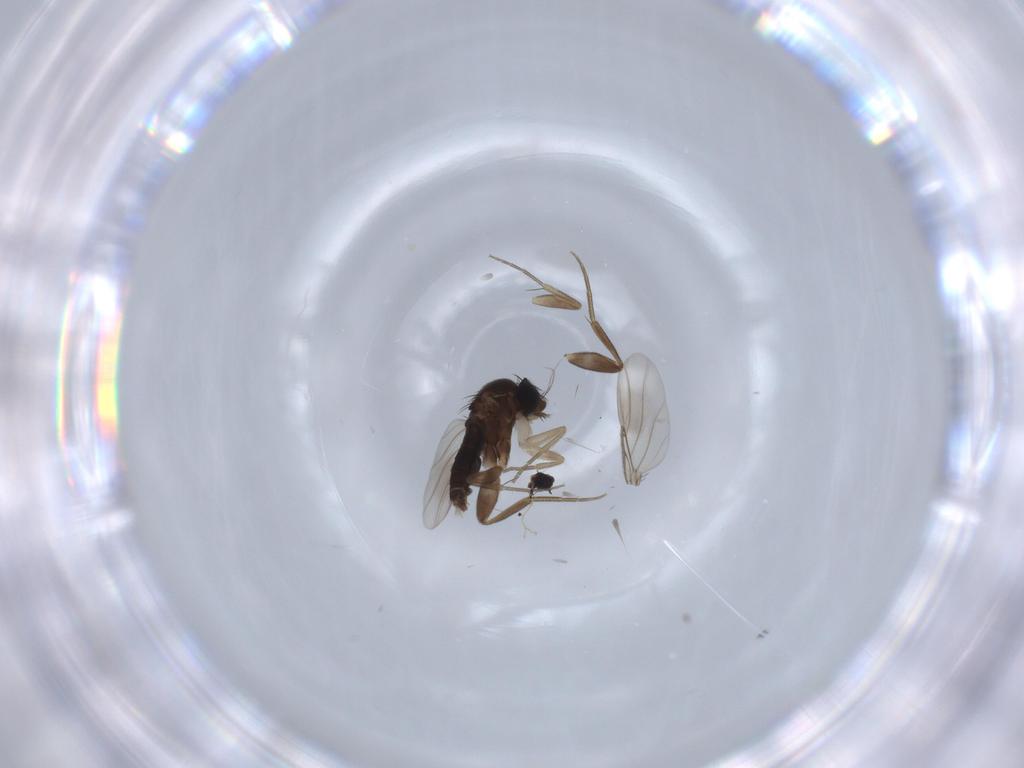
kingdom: Animalia
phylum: Arthropoda
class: Insecta
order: Diptera
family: Phoridae
